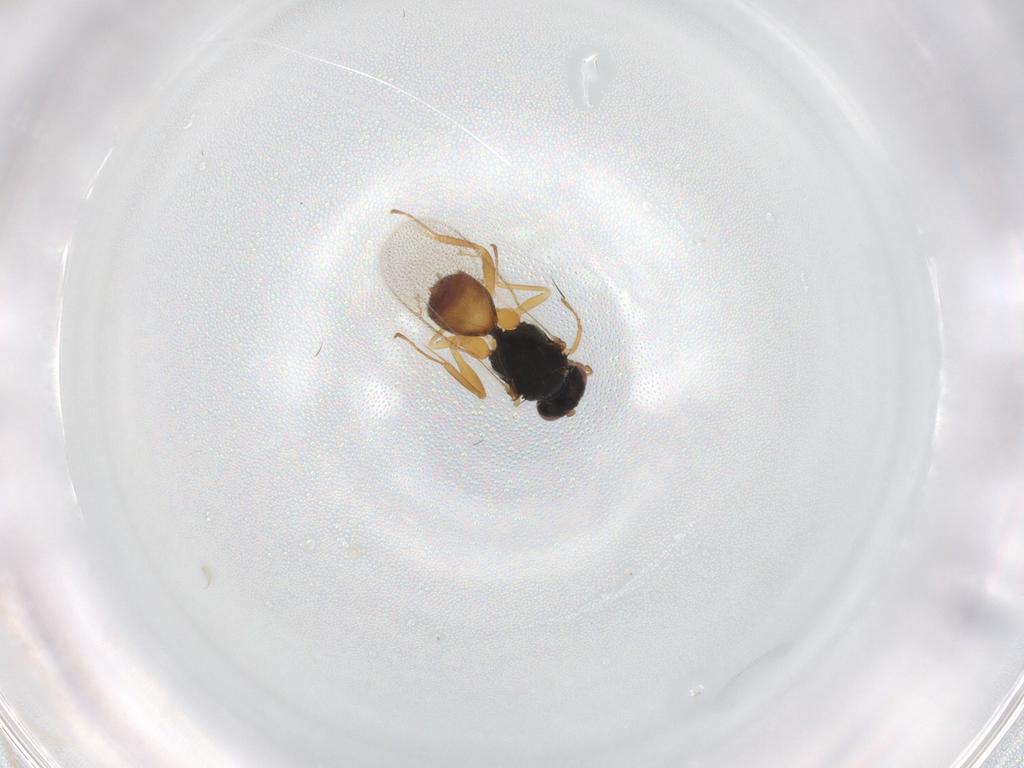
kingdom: Animalia
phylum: Arthropoda
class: Insecta
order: Hymenoptera
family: Eulophidae
